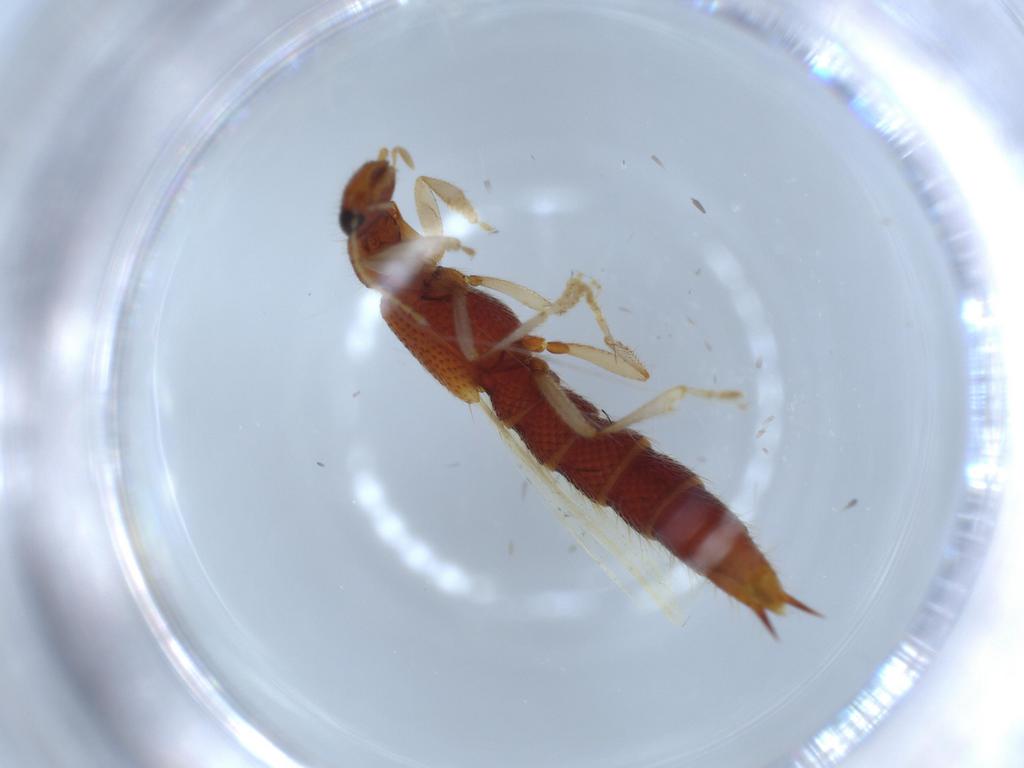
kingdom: Animalia
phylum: Arthropoda
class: Insecta
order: Coleoptera
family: Staphylinidae
